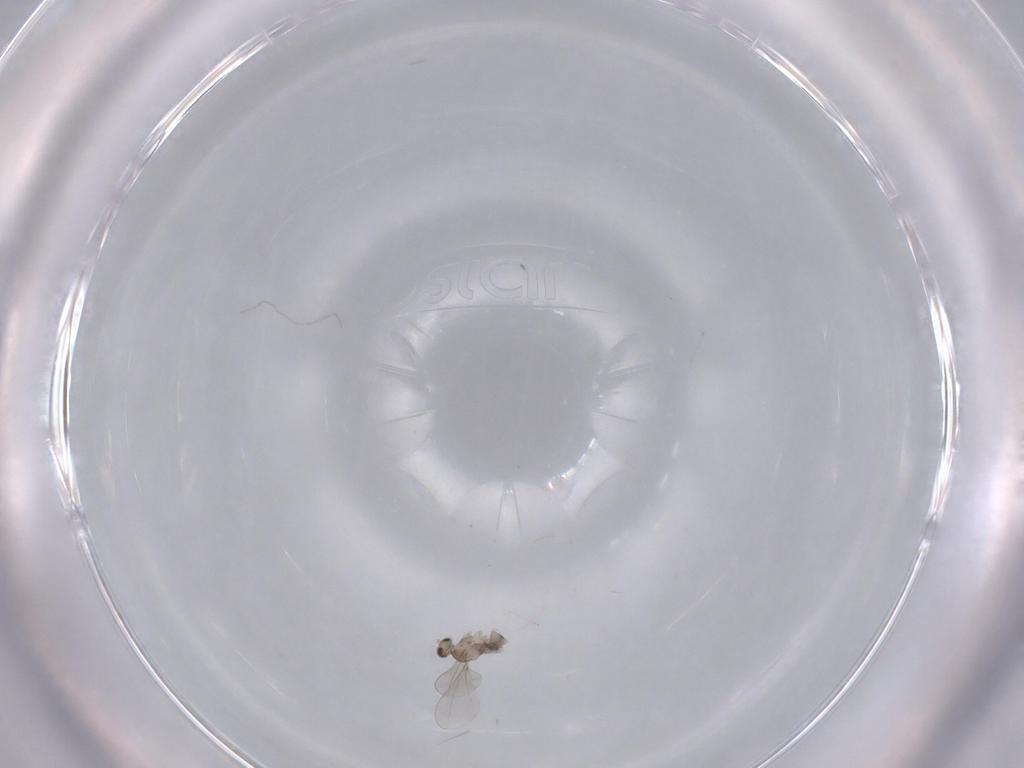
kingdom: Animalia
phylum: Arthropoda
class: Insecta
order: Diptera
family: Cecidomyiidae
